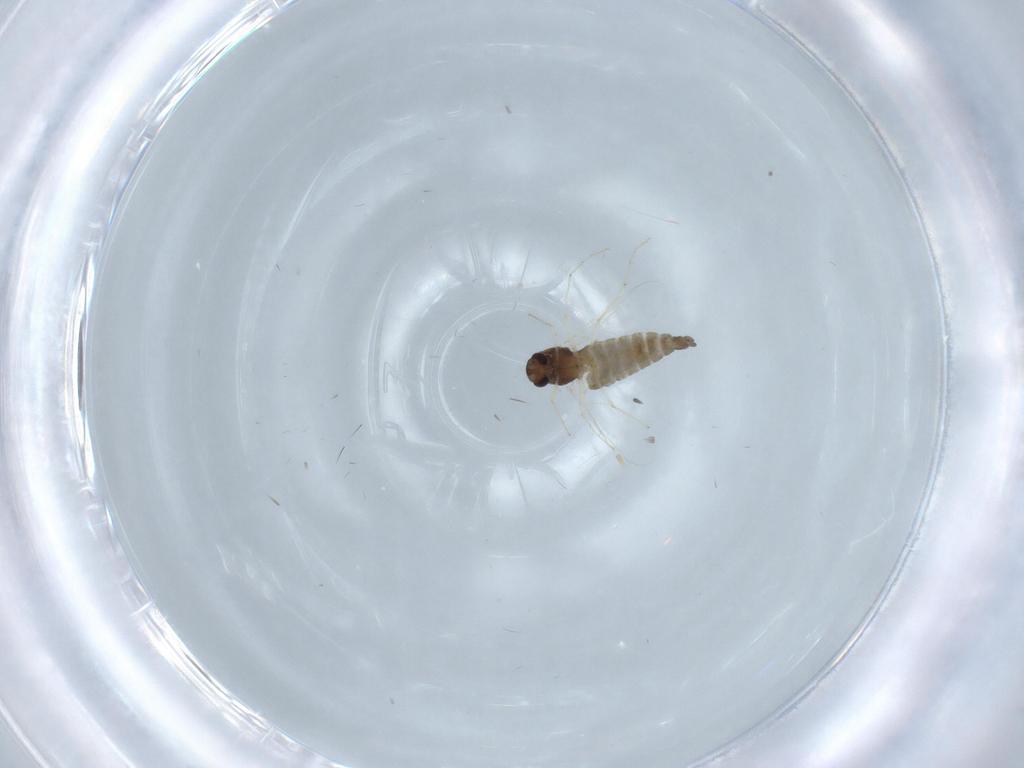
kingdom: Animalia
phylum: Arthropoda
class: Insecta
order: Diptera
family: Chironomidae
